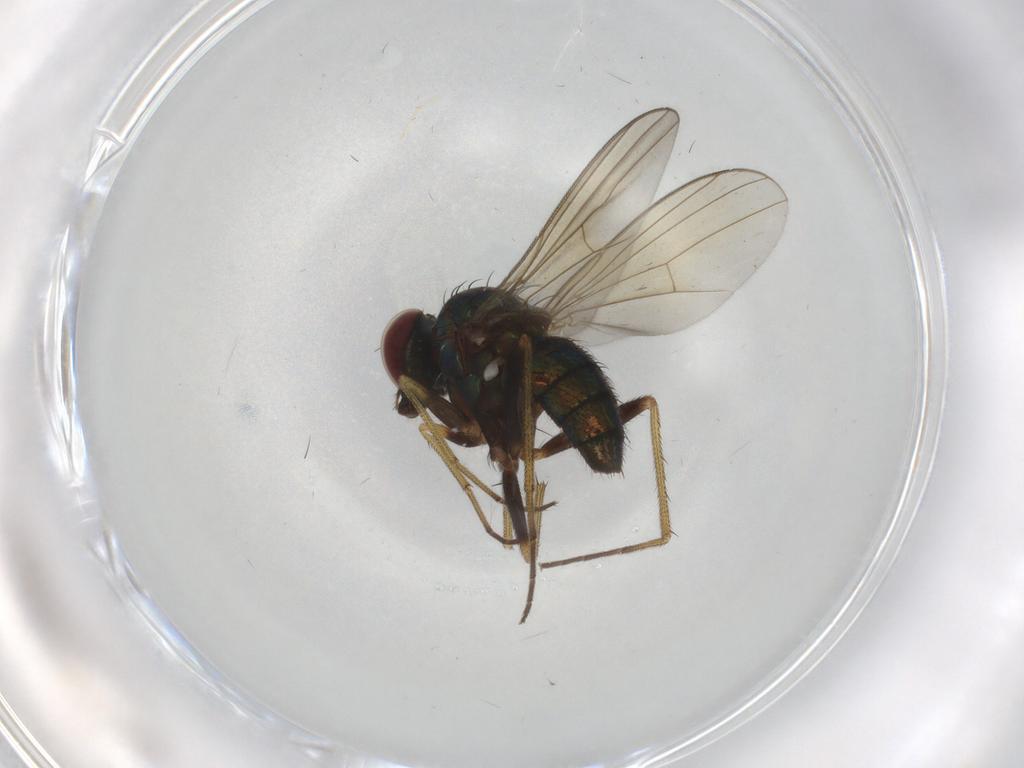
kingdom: Animalia
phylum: Arthropoda
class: Insecta
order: Diptera
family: Dolichopodidae
